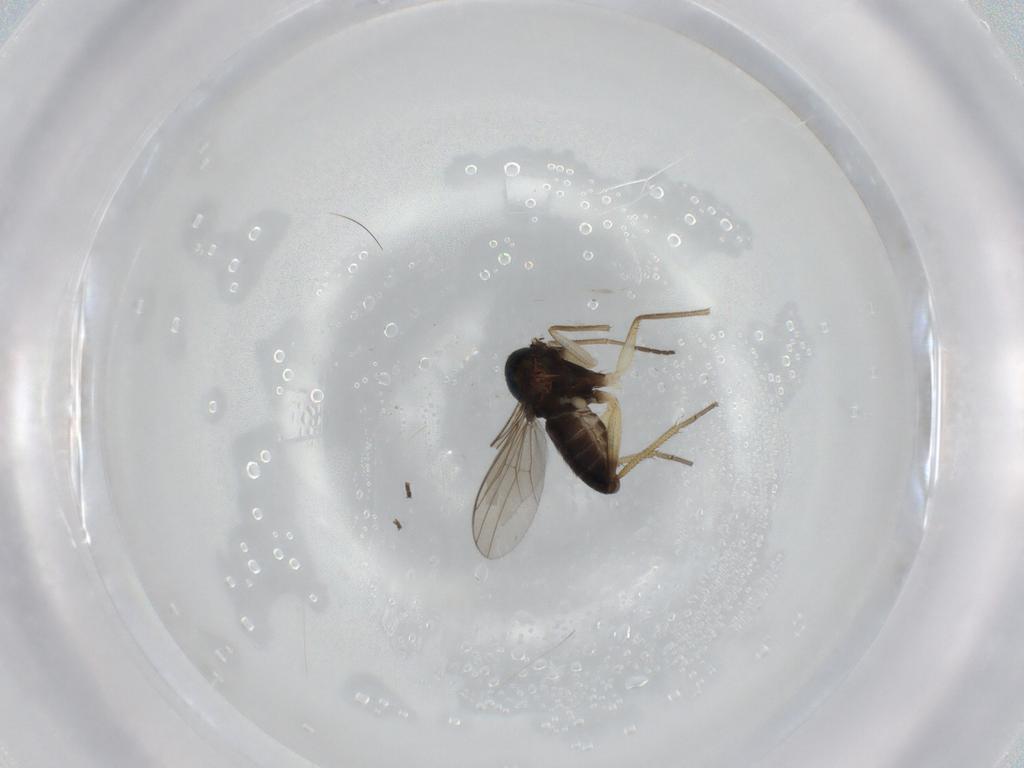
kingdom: Animalia
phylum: Arthropoda
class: Insecta
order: Diptera
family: Dolichopodidae
